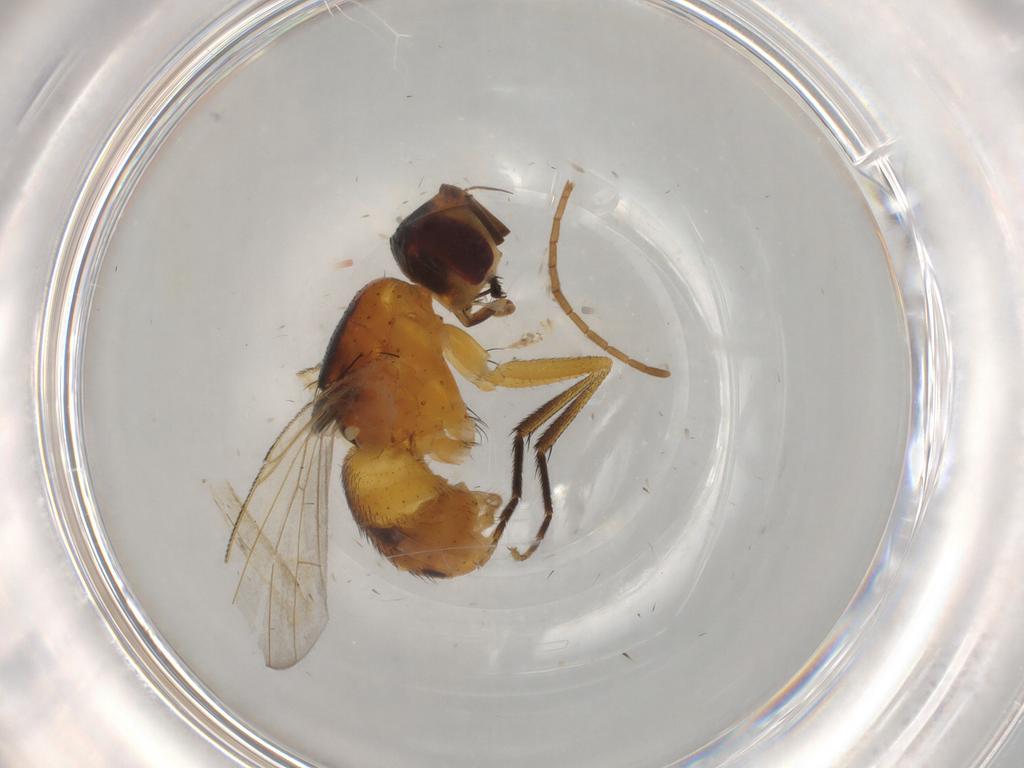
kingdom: Animalia
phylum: Arthropoda
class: Insecta
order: Diptera
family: Muscidae
